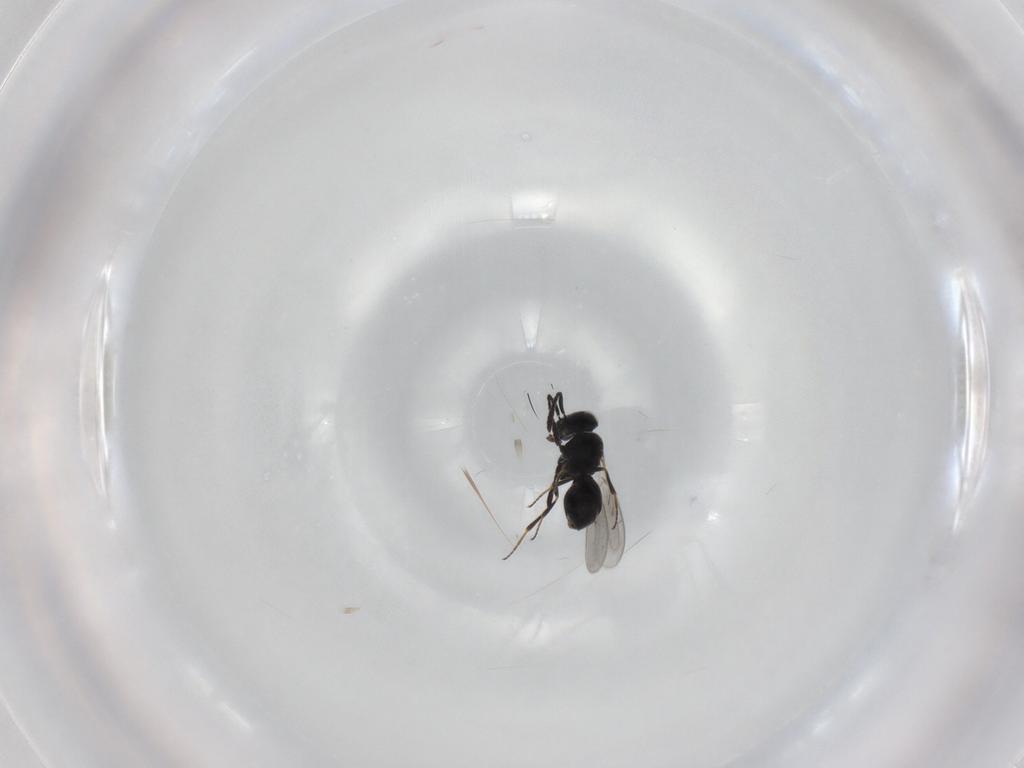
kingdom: Animalia
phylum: Arthropoda
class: Insecta
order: Hymenoptera
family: Scelionidae
